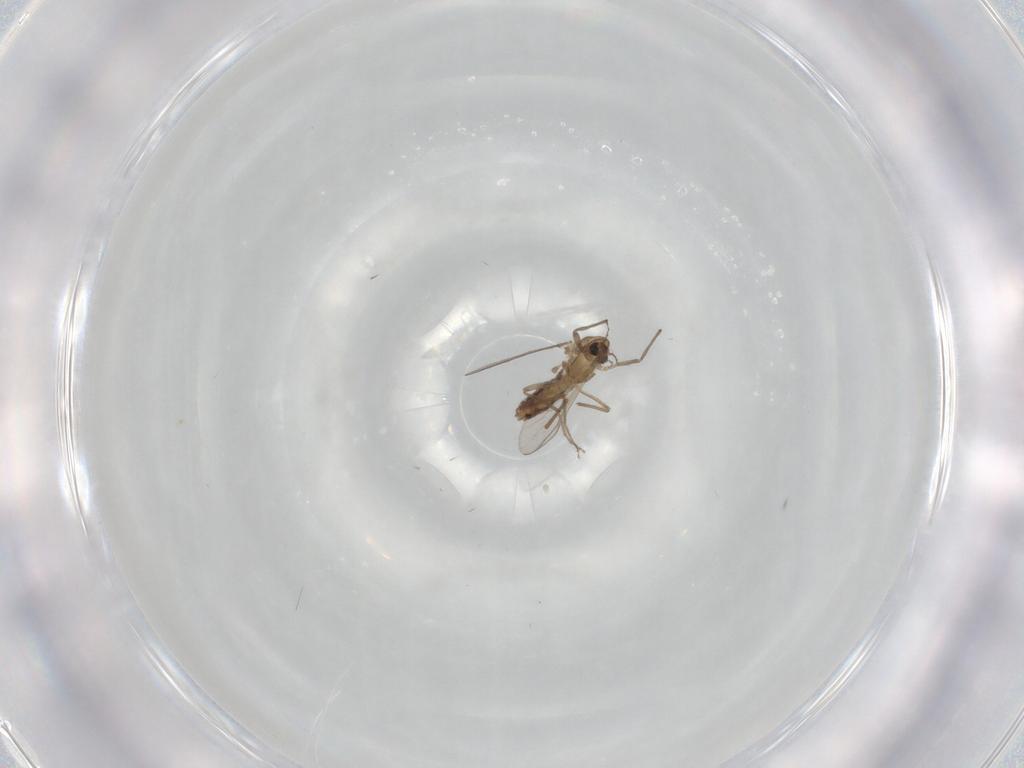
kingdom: Animalia
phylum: Arthropoda
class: Insecta
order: Diptera
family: Chironomidae
